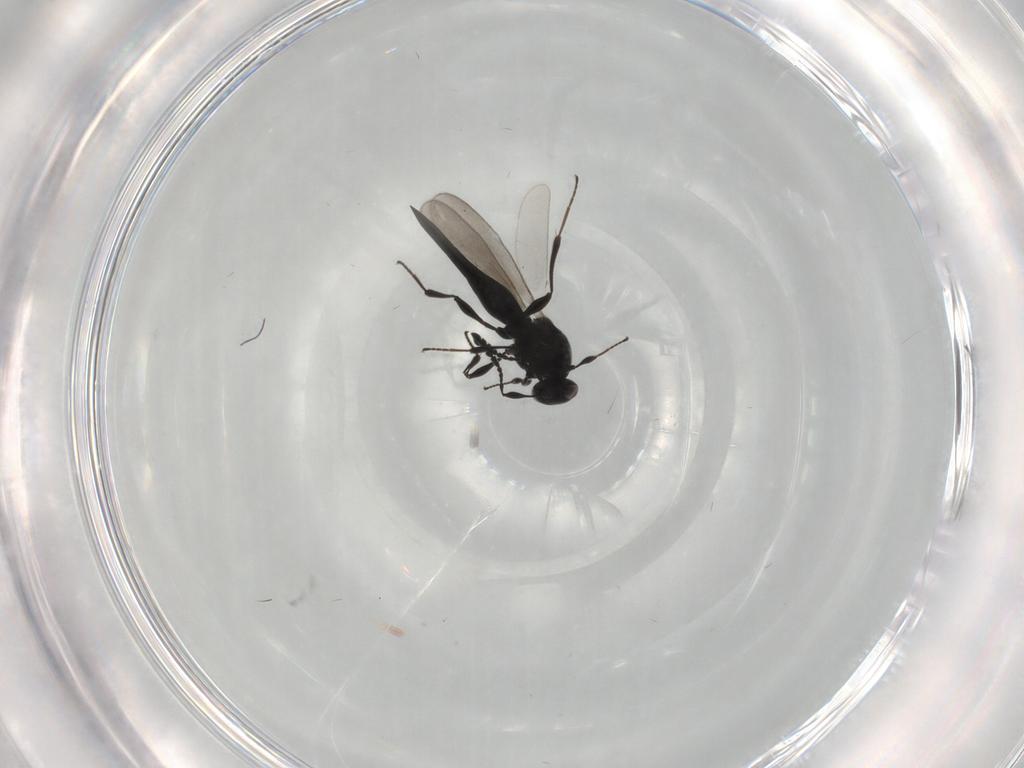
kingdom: Animalia
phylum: Arthropoda
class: Insecta
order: Hymenoptera
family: Platygastridae
